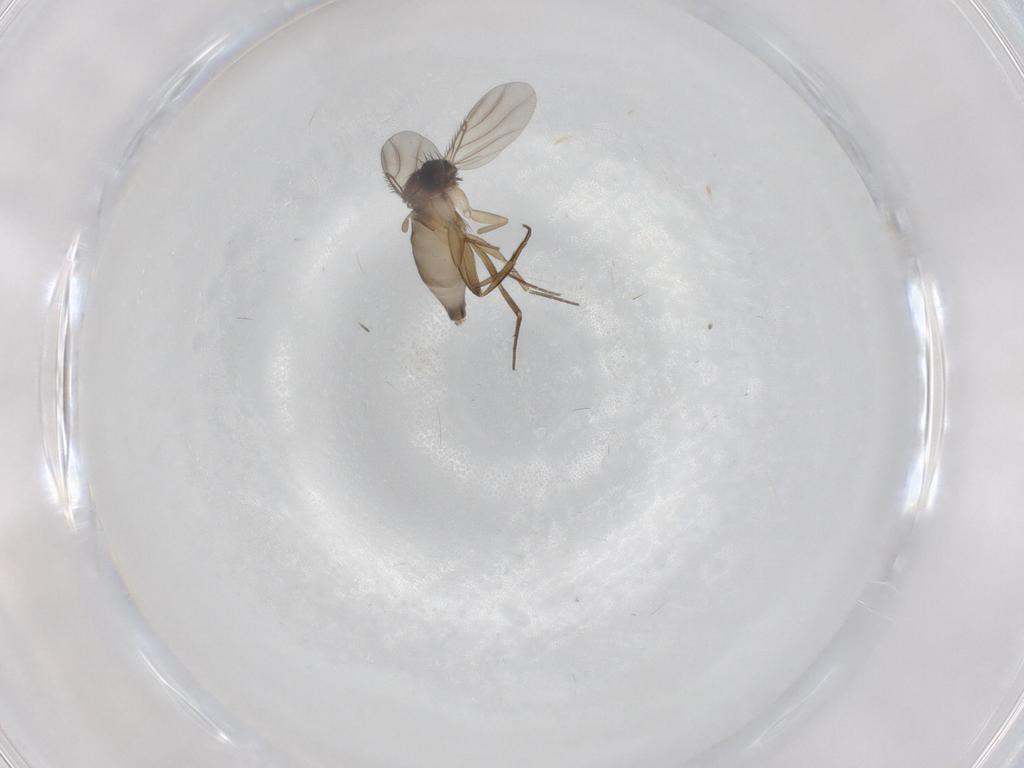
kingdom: Animalia
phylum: Arthropoda
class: Insecta
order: Diptera
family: Phoridae
